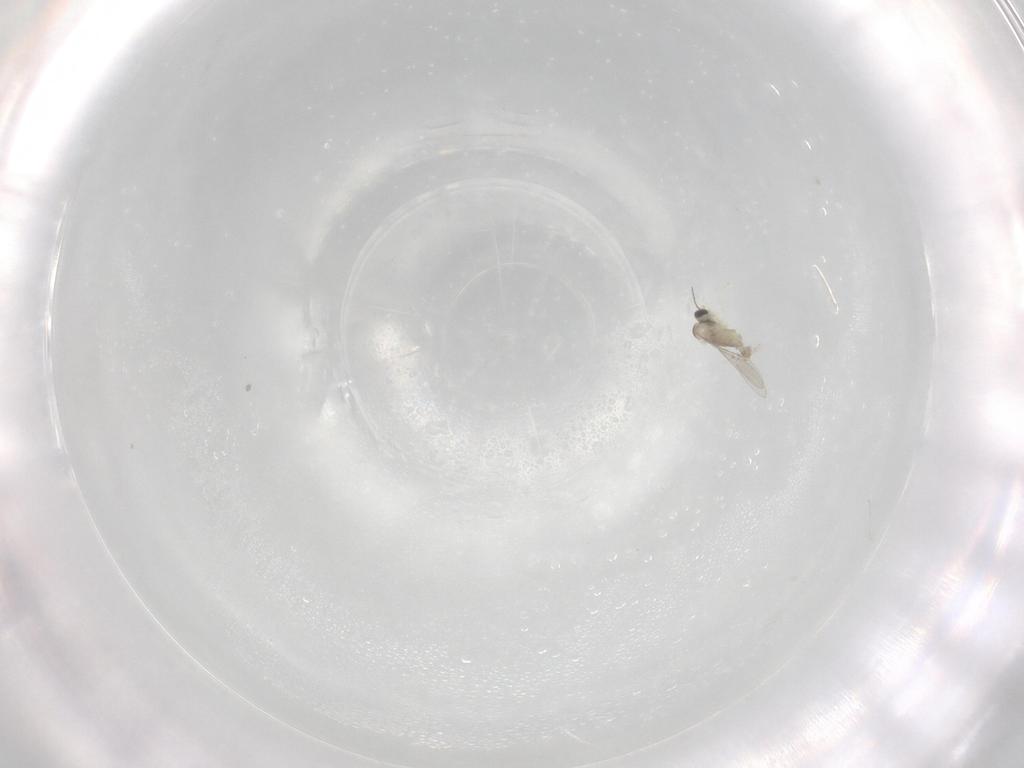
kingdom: Animalia
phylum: Arthropoda
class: Insecta
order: Diptera
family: Cecidomyiidae
